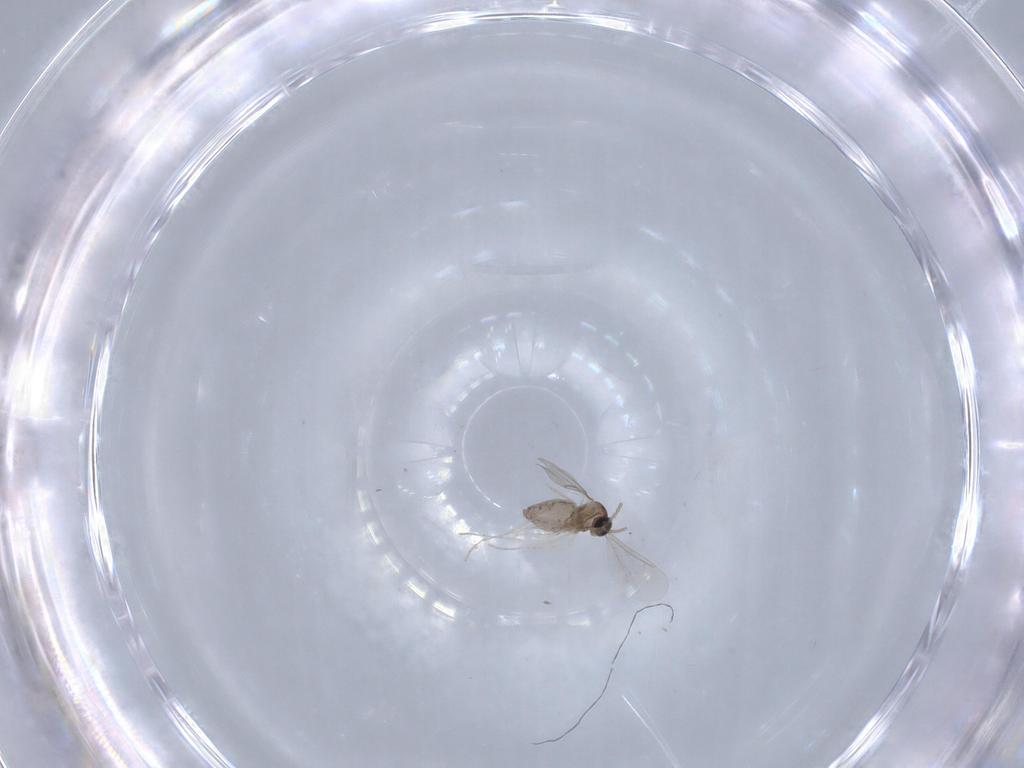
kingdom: Animalia
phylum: Arthropoda
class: Insecta
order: Diptera
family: Cecidomyiidae
